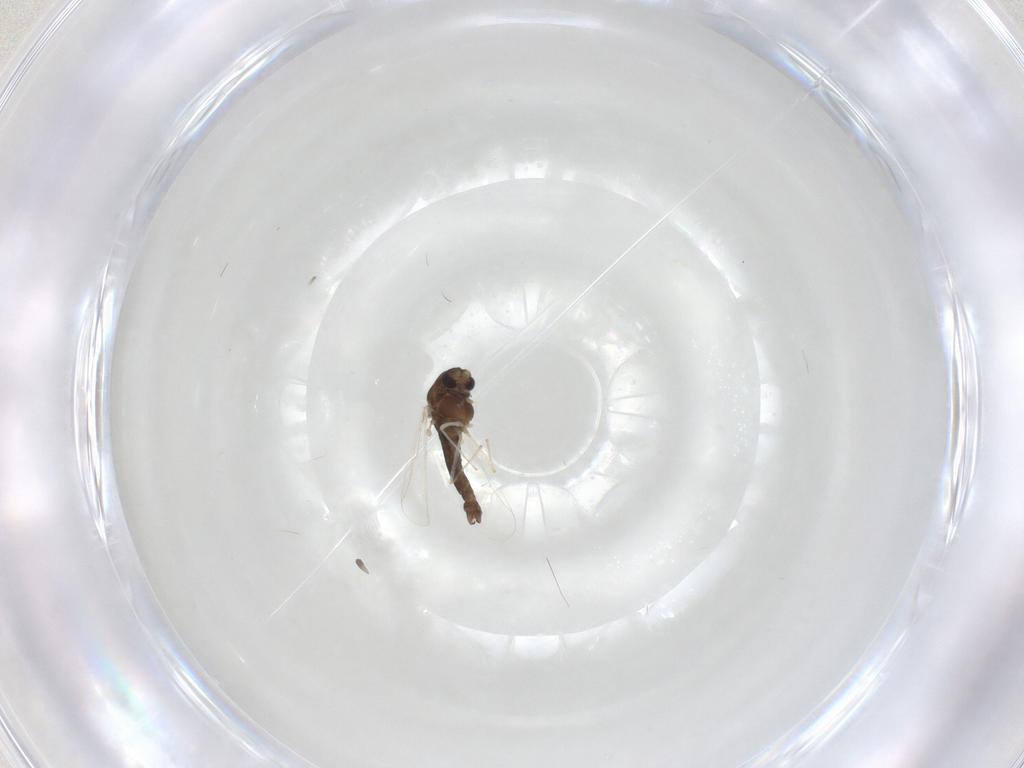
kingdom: Animalia
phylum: Arthropoda
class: Insecta
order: Diptera
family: Chironomidae
